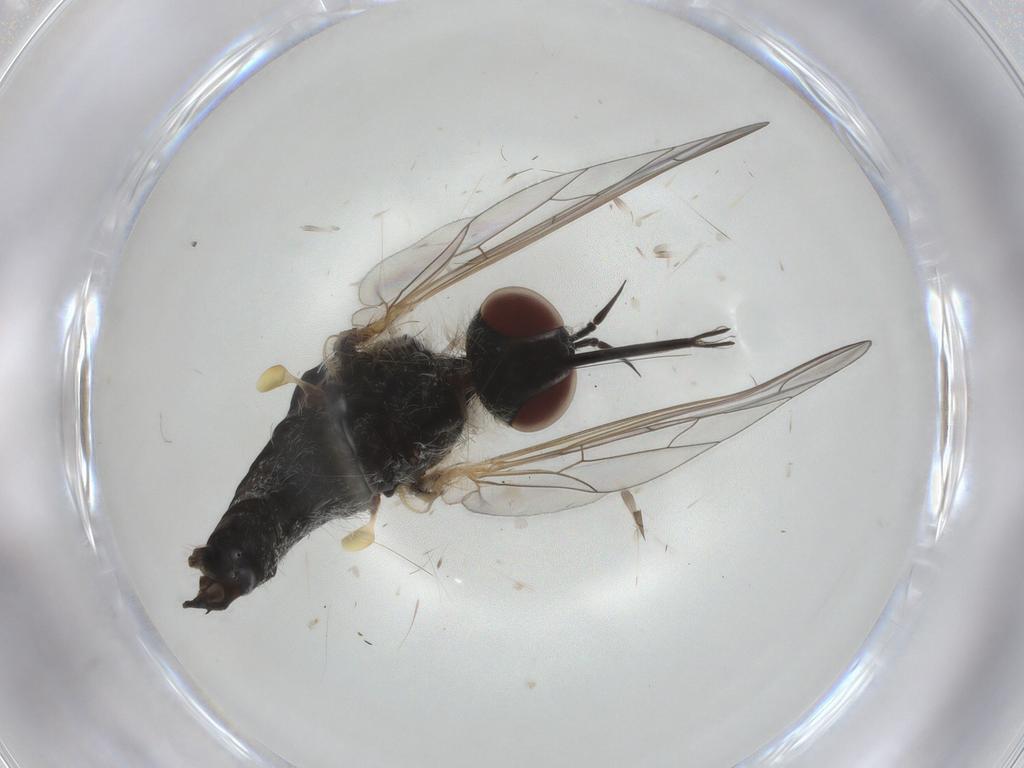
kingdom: Animalia
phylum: Arthropoda
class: Insecta
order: Diptera
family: Bombyliidae
